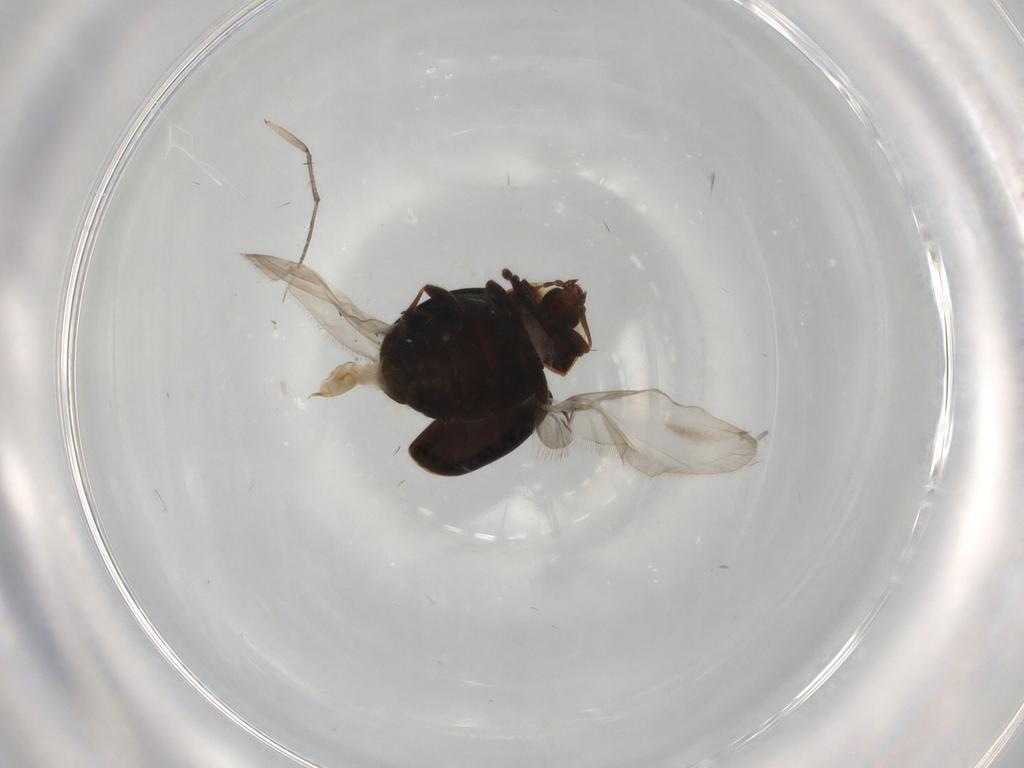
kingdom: Animalia
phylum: Arthropoda
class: Insecta
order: Coleoptera
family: Corylophidae
